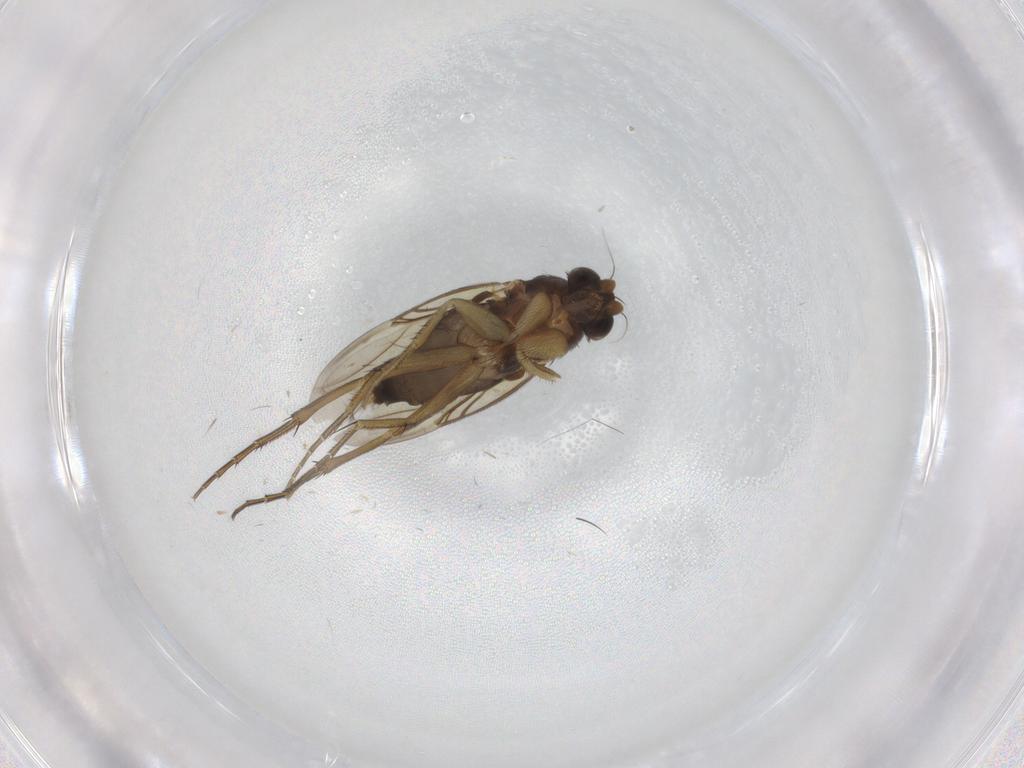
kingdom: Animalia
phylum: Arthropoda
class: Insecta
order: Diptera
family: Phoridae
